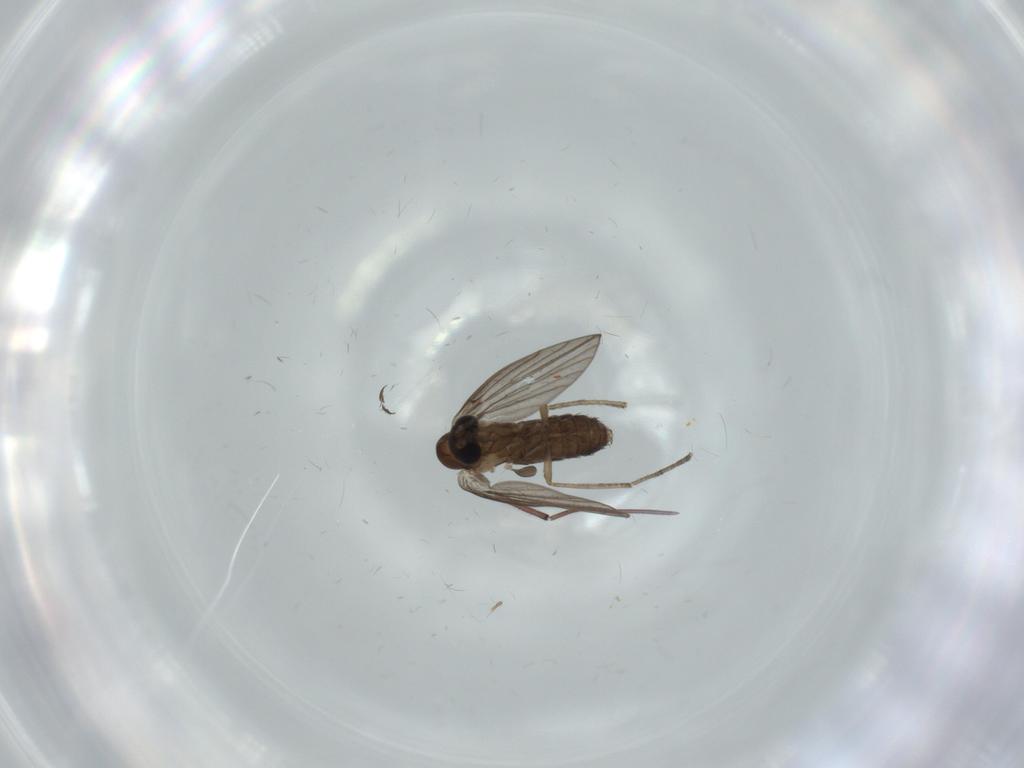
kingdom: Animalia
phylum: Arthropoda
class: Insecta
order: Diptera
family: Psychodidae
